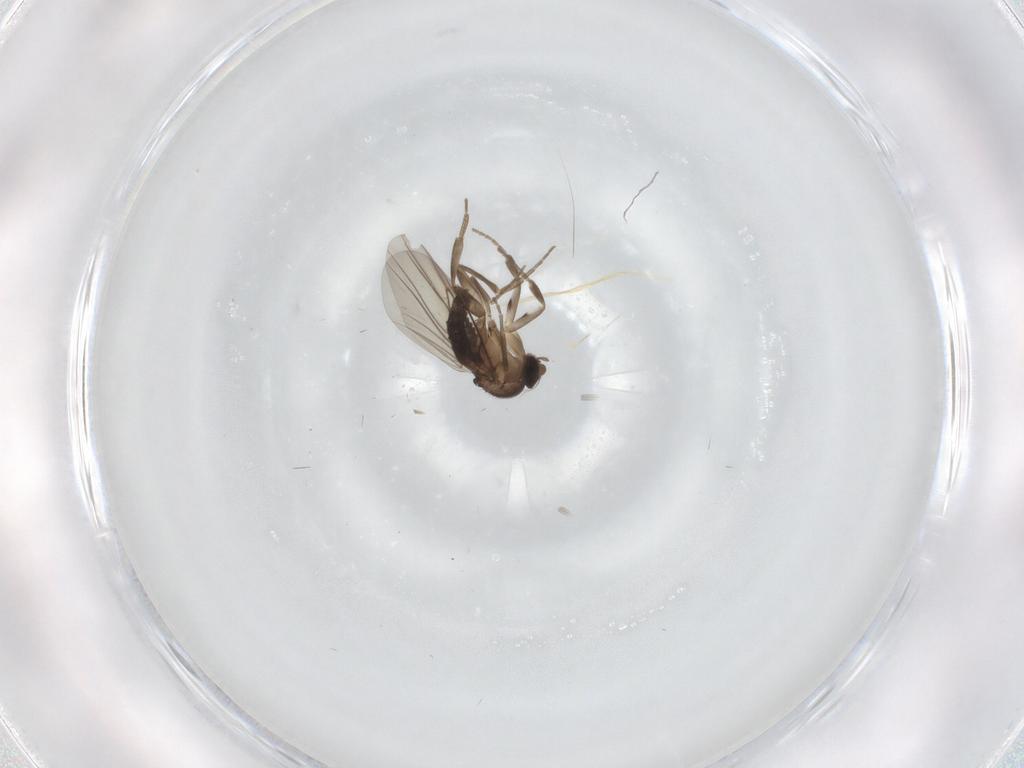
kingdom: Animalia
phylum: Arthropoda
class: Insecta
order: Diptera
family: Phoridae
